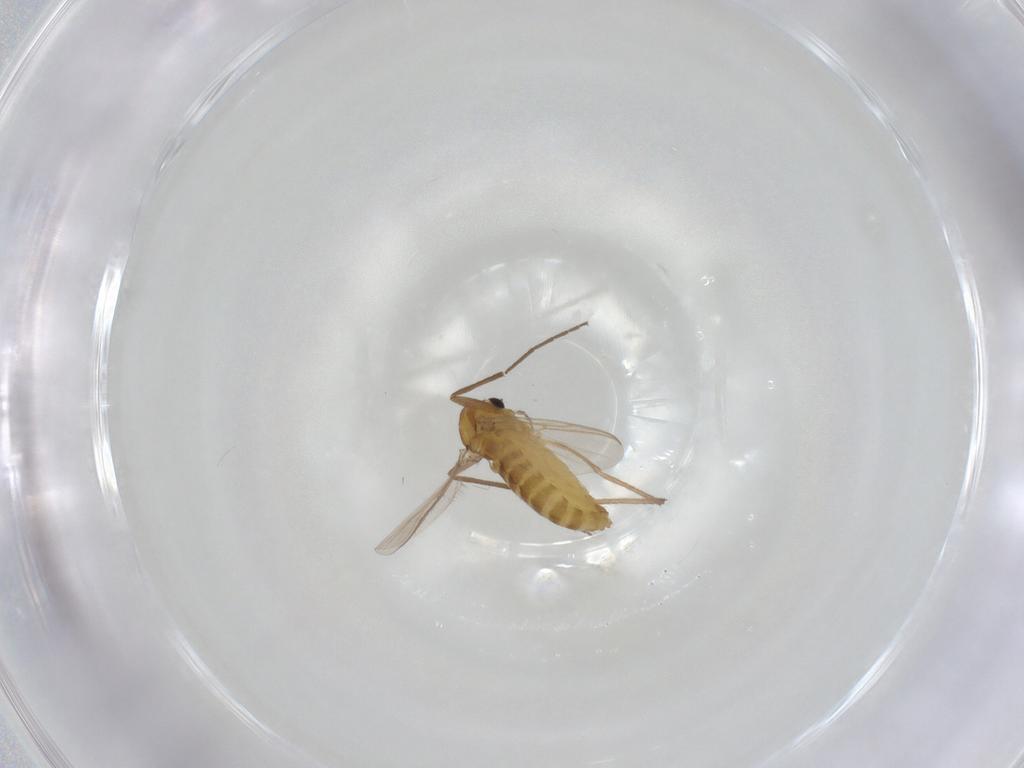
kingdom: Animalia
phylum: Arthropoda
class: Insecta
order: Diptera
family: Chironomidae
